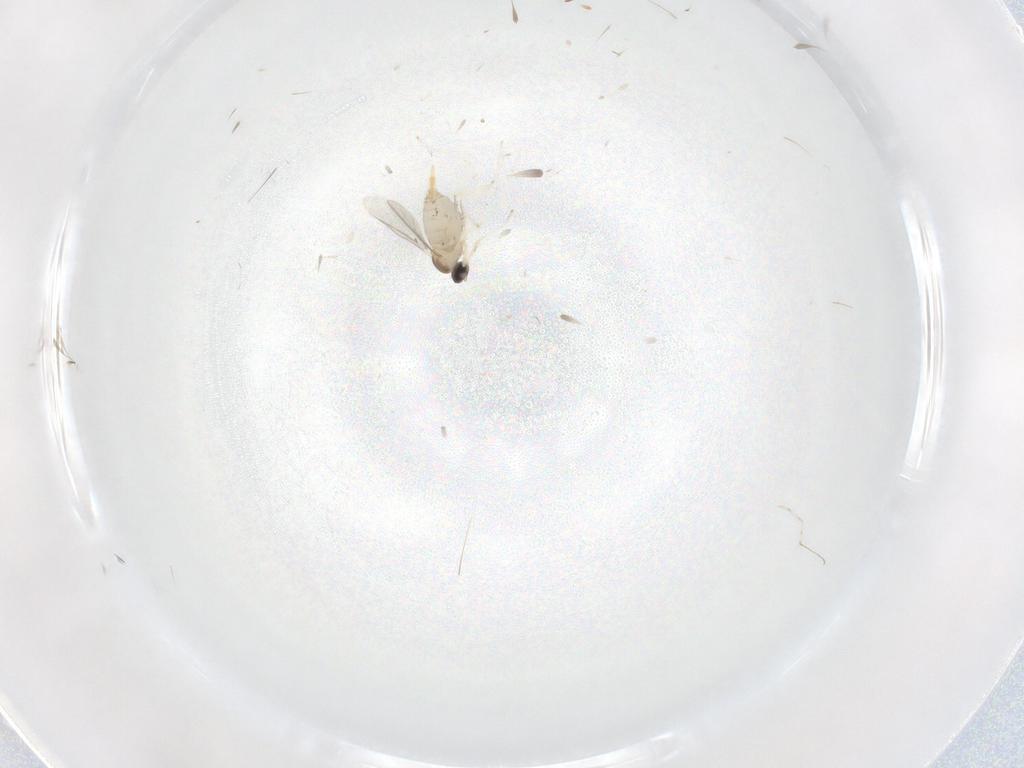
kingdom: Animalia
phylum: Arthropoda
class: Insecta
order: Diptera
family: Cecidomyiidae
